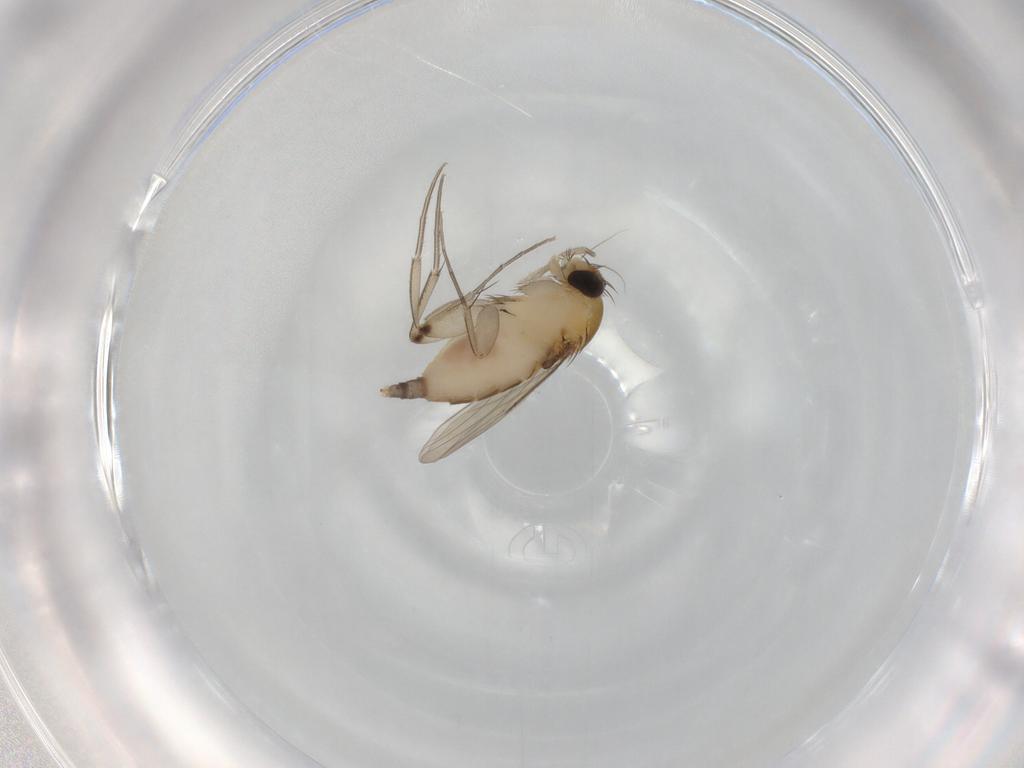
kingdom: Animalia
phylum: Arthropoda
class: Insecta
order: Diptera
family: Phoridae
